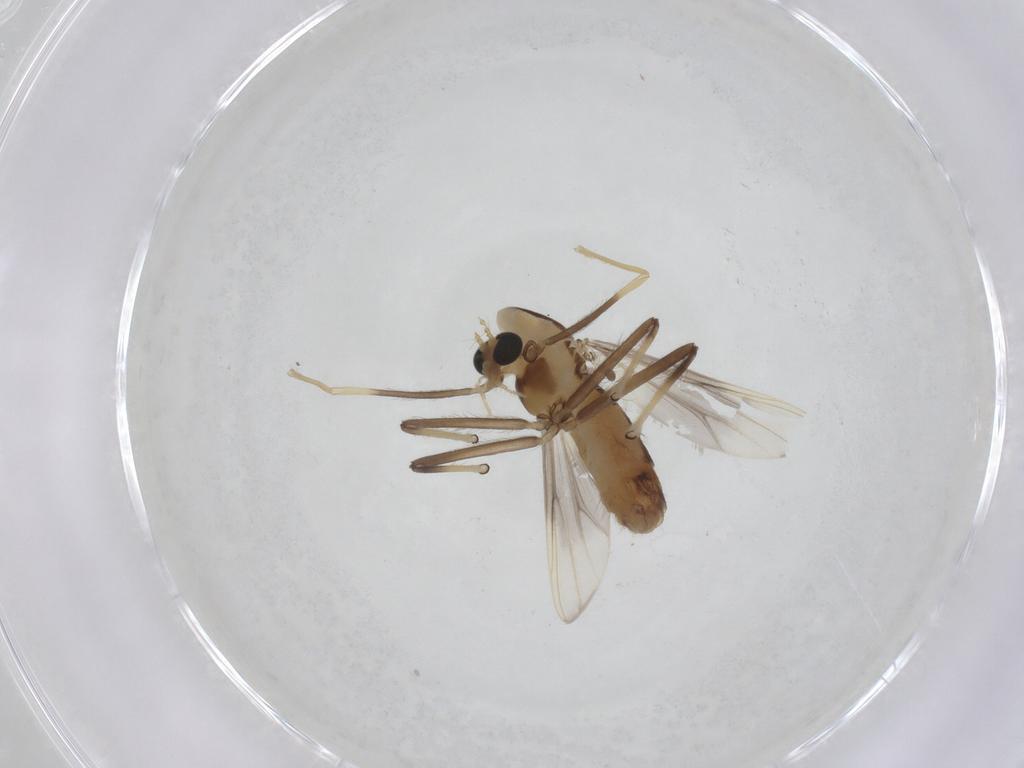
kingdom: Animalia
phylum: Arthropoda
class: Insecta
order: Diptera
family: Chironomidae
